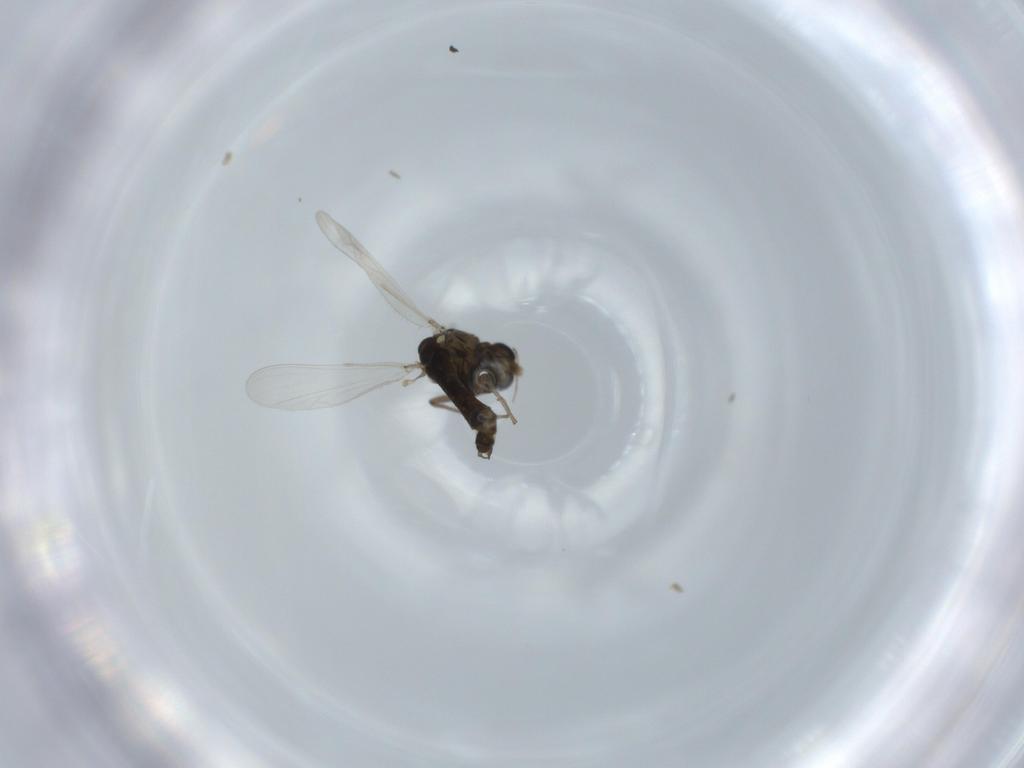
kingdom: Animalia
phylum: Arthropoda
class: Insecta
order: Diptera
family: Chironomidae
